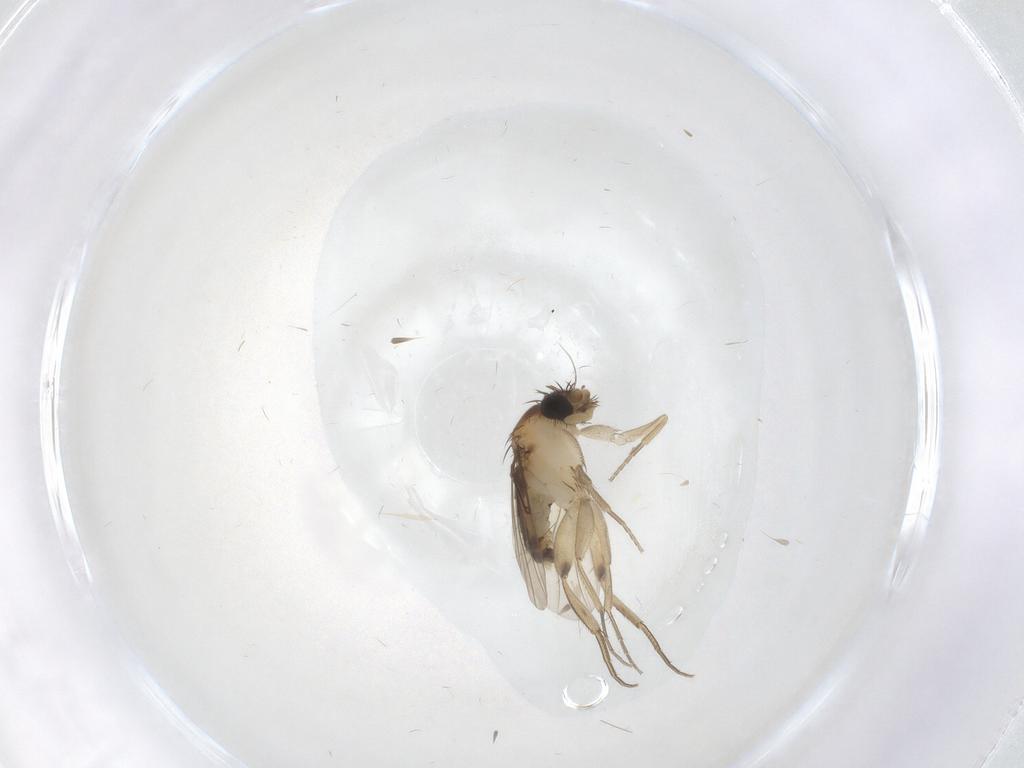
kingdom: Animalia
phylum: Arthropoda
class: Insecta
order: Diptera
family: Phoridae
